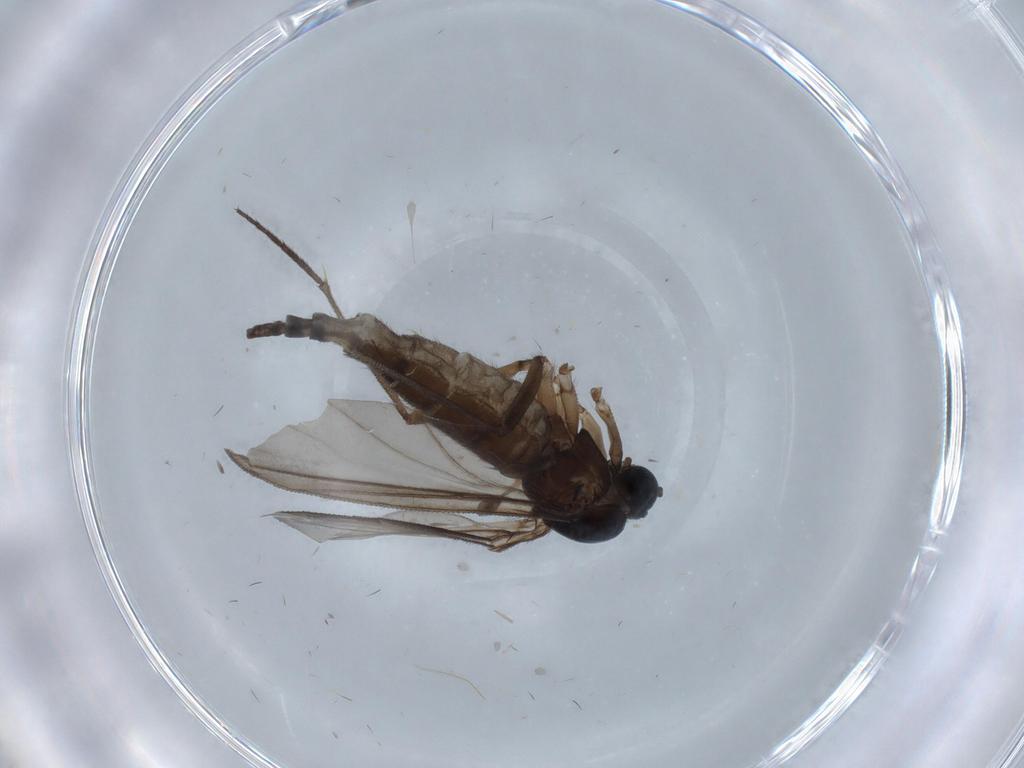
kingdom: Animalia
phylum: Arthropoda
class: Insecta
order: Diptera
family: Ceratopogonidae
